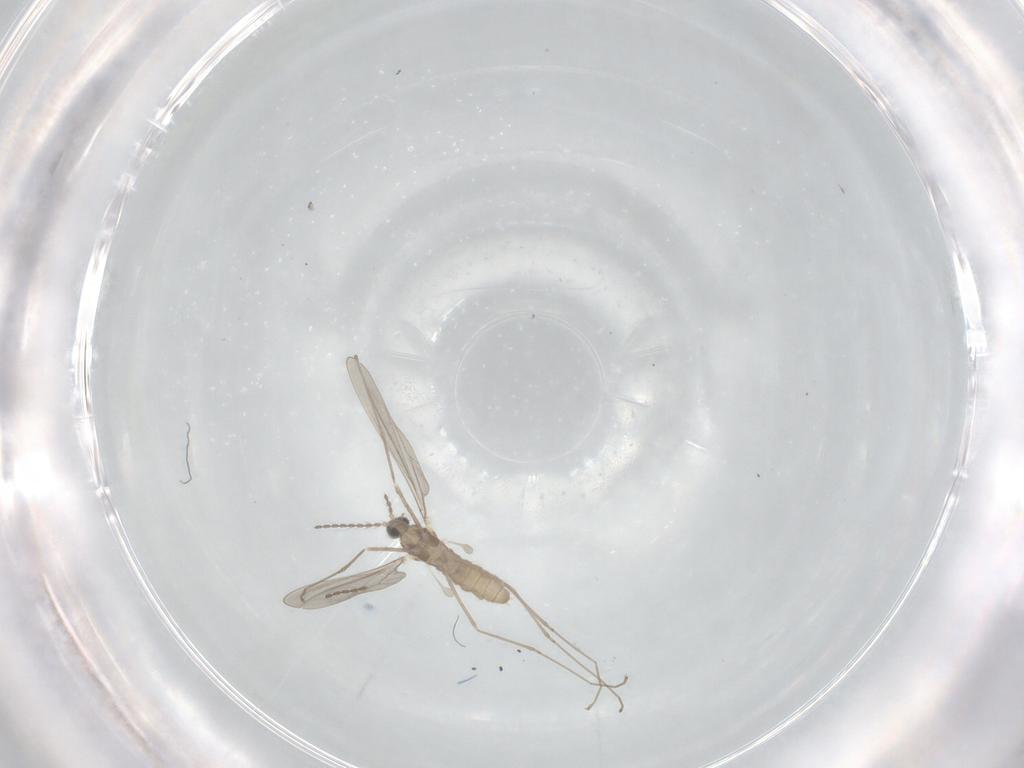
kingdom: Animalia
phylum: Arthropoda
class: Insecta
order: Diptera
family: Cecidomyiidae
